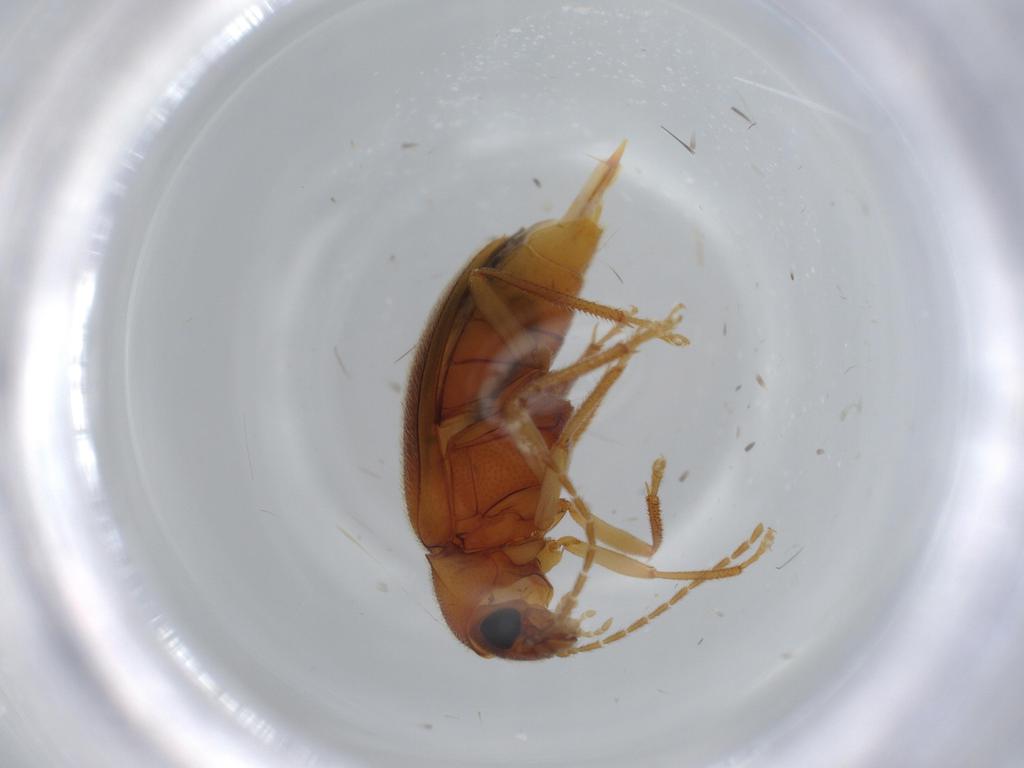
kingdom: Animalia
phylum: Arthropoda
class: Insecta
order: Coleoptera
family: Ptilodactylidae
